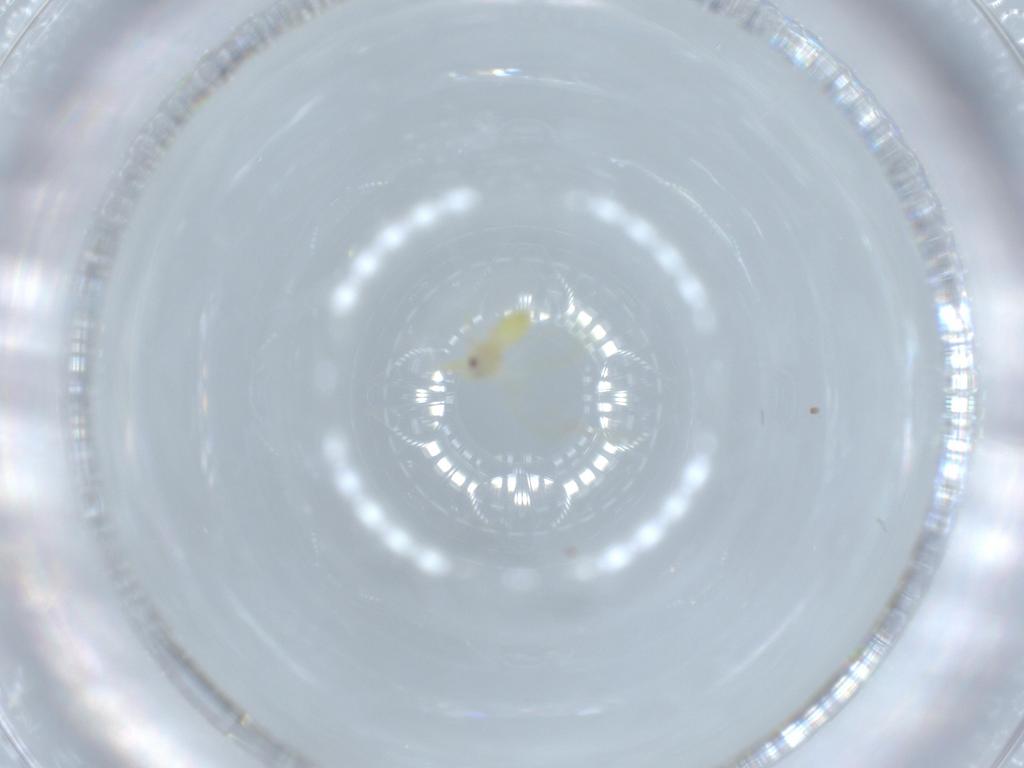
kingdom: Animalia
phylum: Arthropoda
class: Insecta
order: Hemiptera
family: Aleyrodidae
